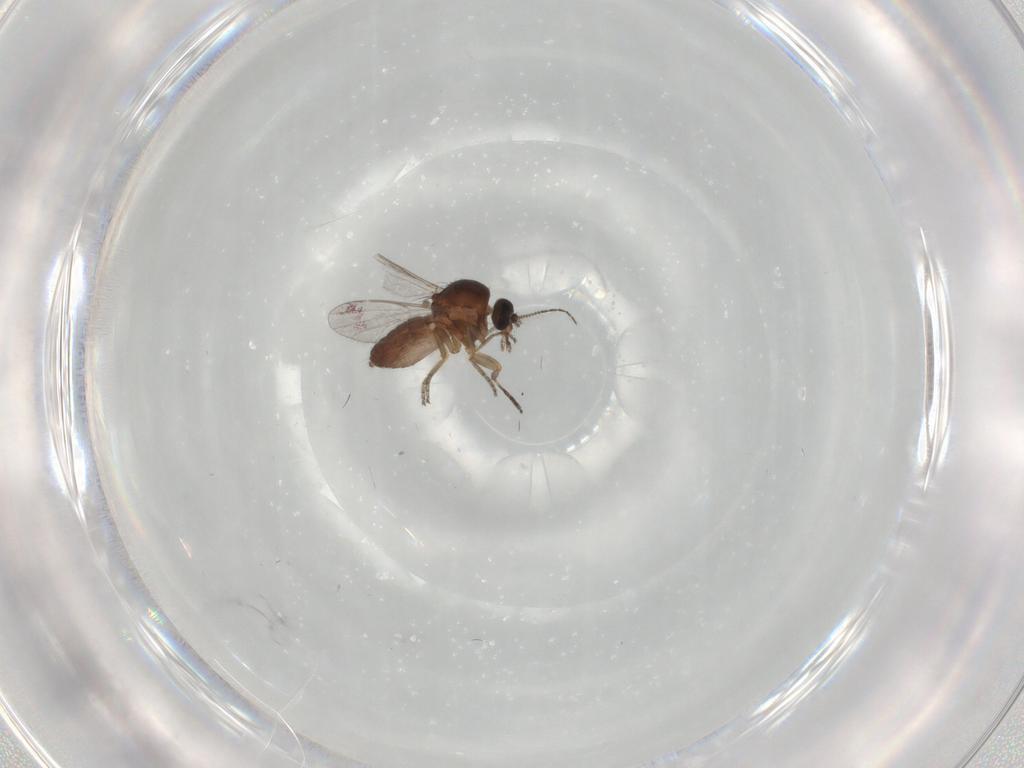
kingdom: Animalia
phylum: Arthropoda
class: Insecta
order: Diptera
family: Ceratopogonidae
